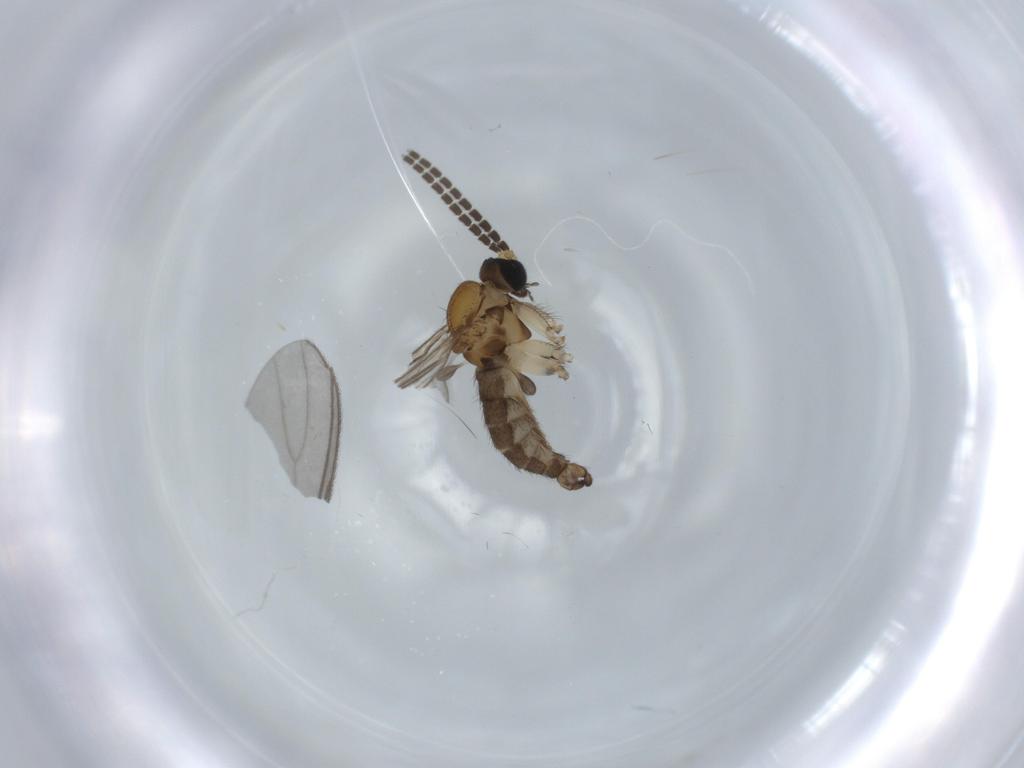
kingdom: Animalia
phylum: Arthropoda
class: Insecta
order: Diptera
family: Sciaridae
